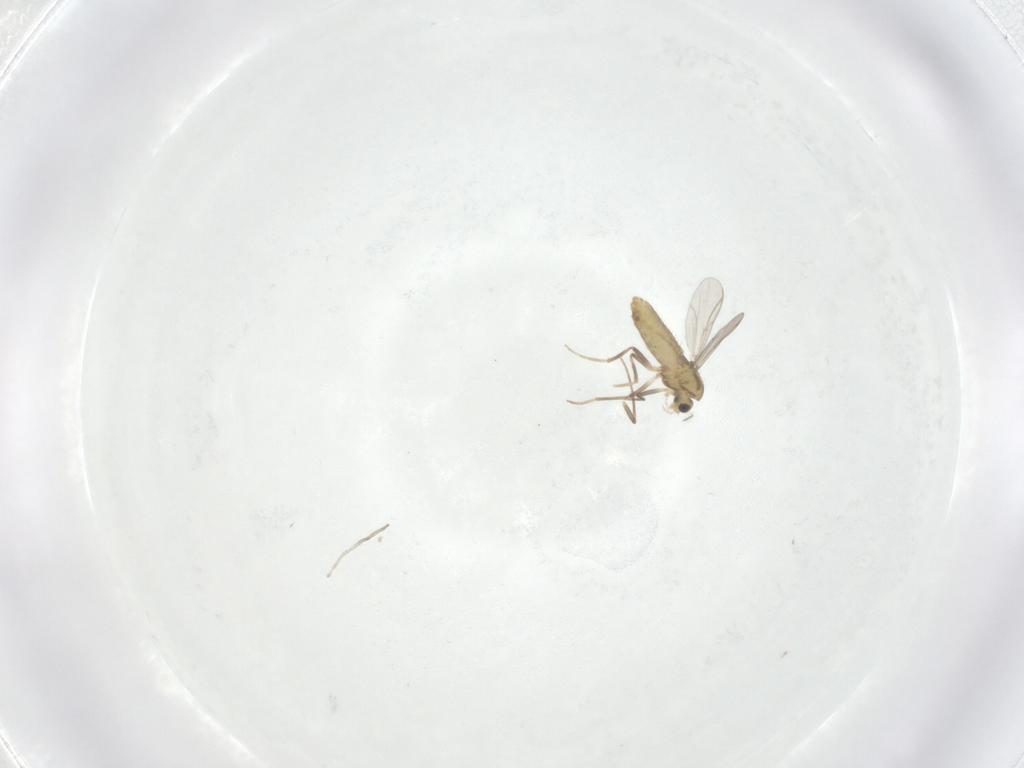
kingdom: Animalia
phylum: Arthropoda
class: Insecta
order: Diptera
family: Chironomidae
